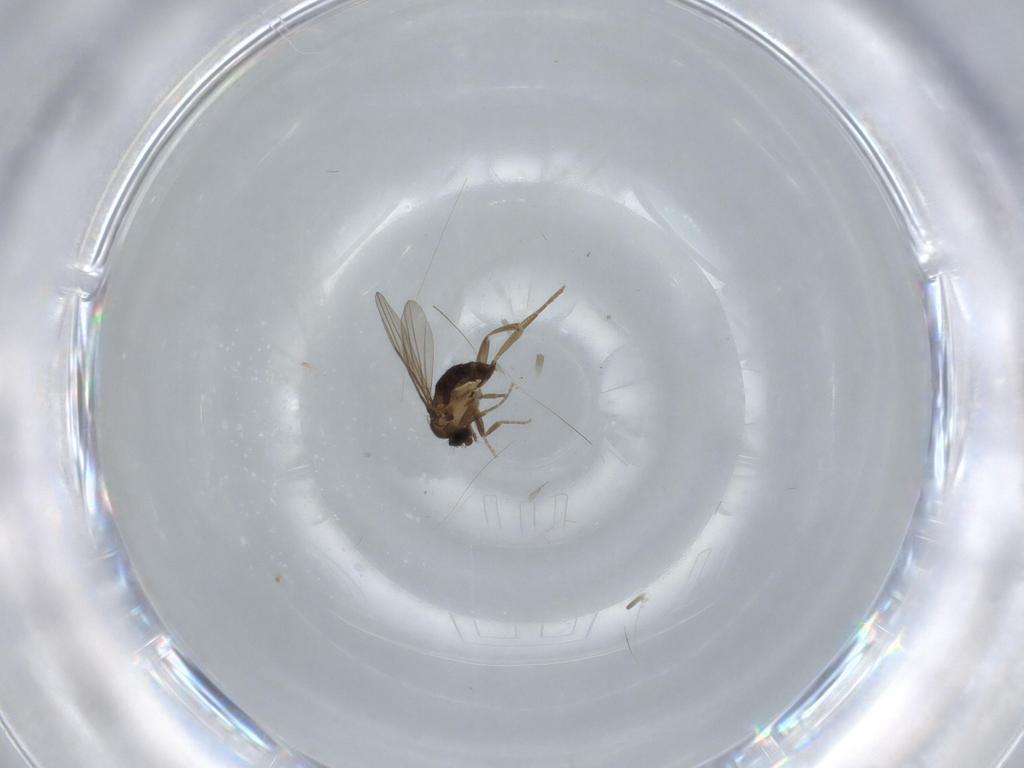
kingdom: Animalia
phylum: Arthropoda
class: Insecta
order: Diptera
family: Phoridae
